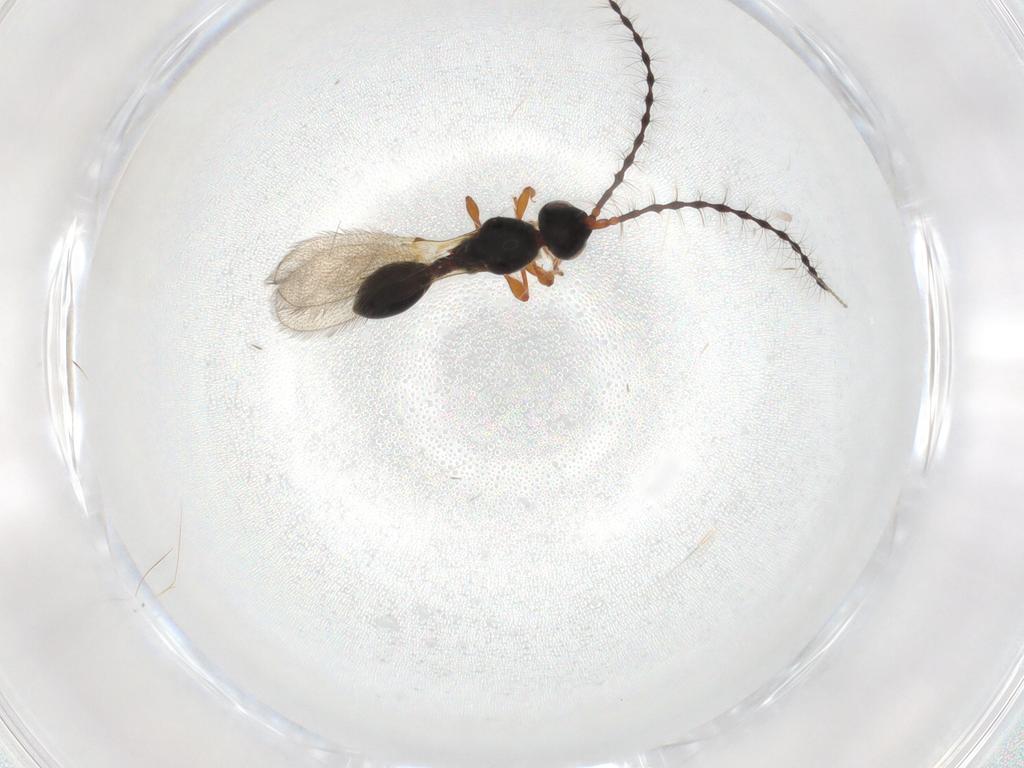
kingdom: Animalia
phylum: Arthropoda
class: Insecta
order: Hymenoptera
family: Diapriidae
